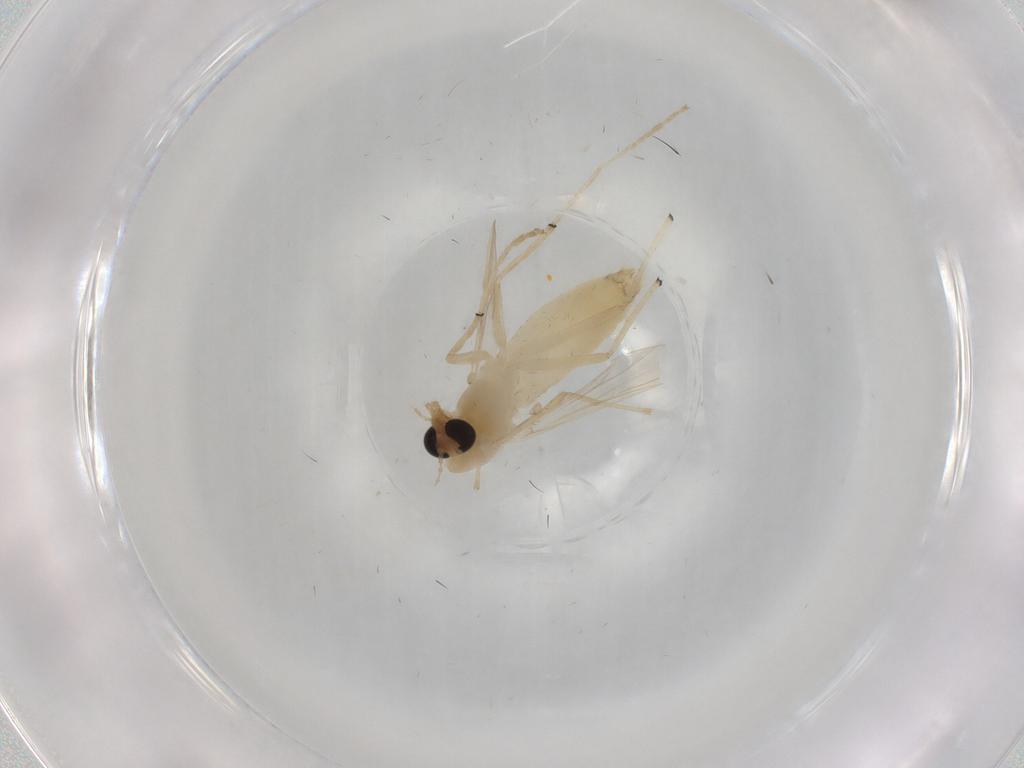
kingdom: Animalia
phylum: Arthropoda
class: Insecta
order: Diptera
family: Chironomidae
